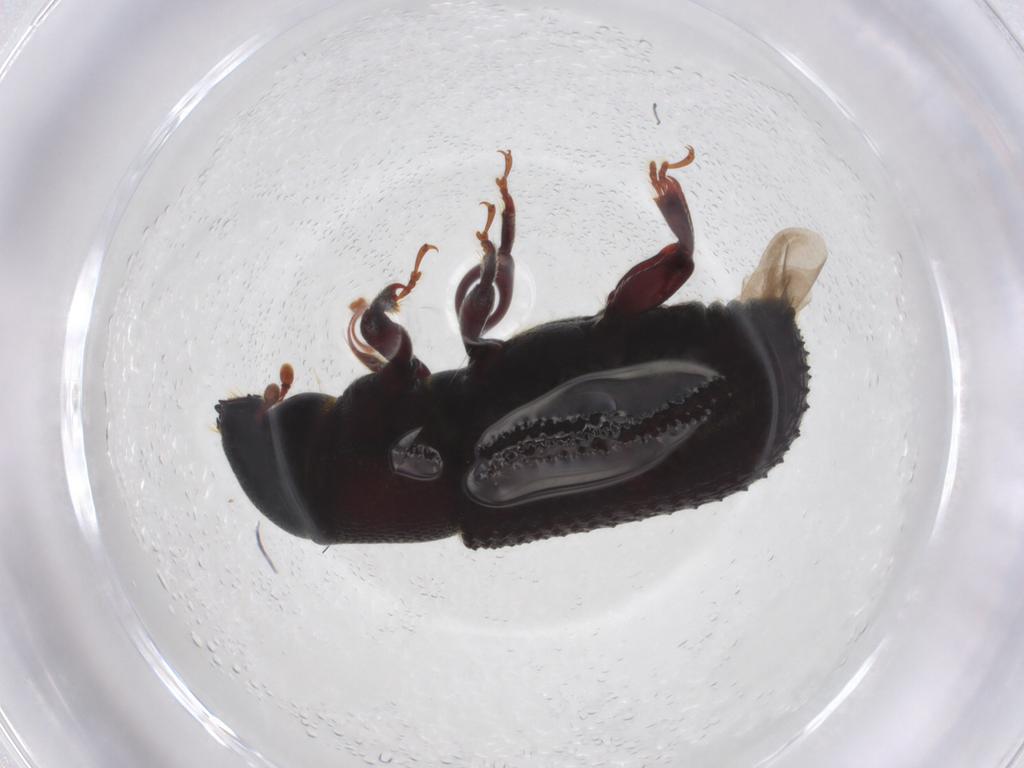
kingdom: Animalia
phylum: Arthropoda
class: Insecta
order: Coleoptera
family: Curculionidae
